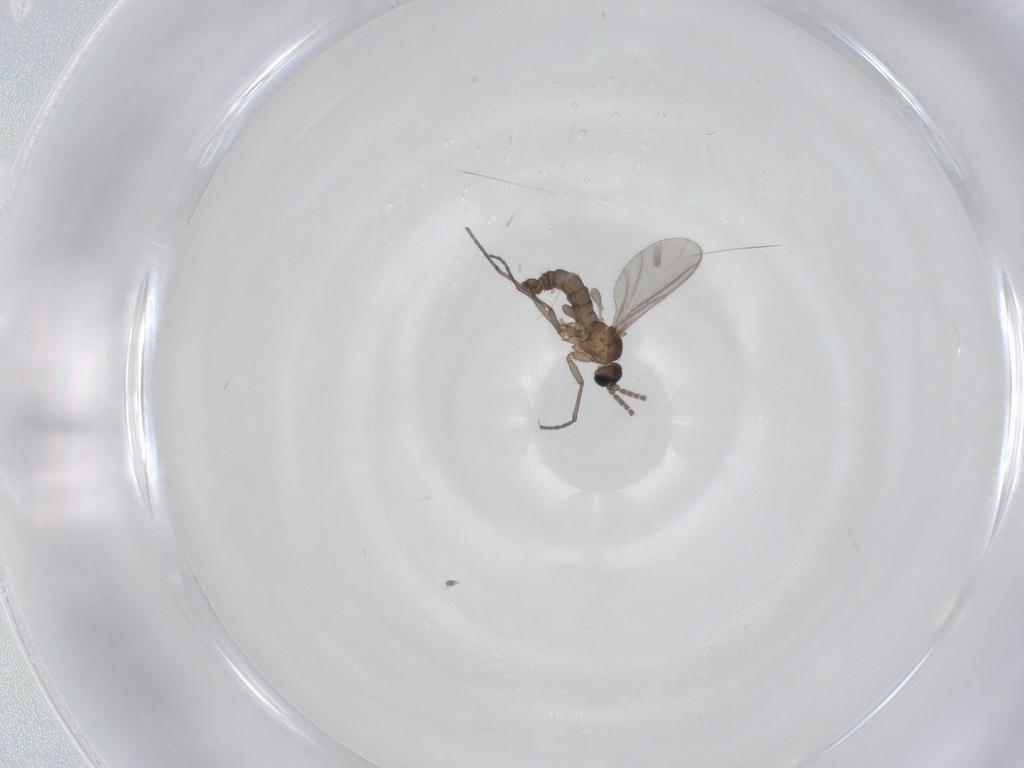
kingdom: Animalia
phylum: Arthropoda
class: Insecta
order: Diptera
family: Sciaridae
